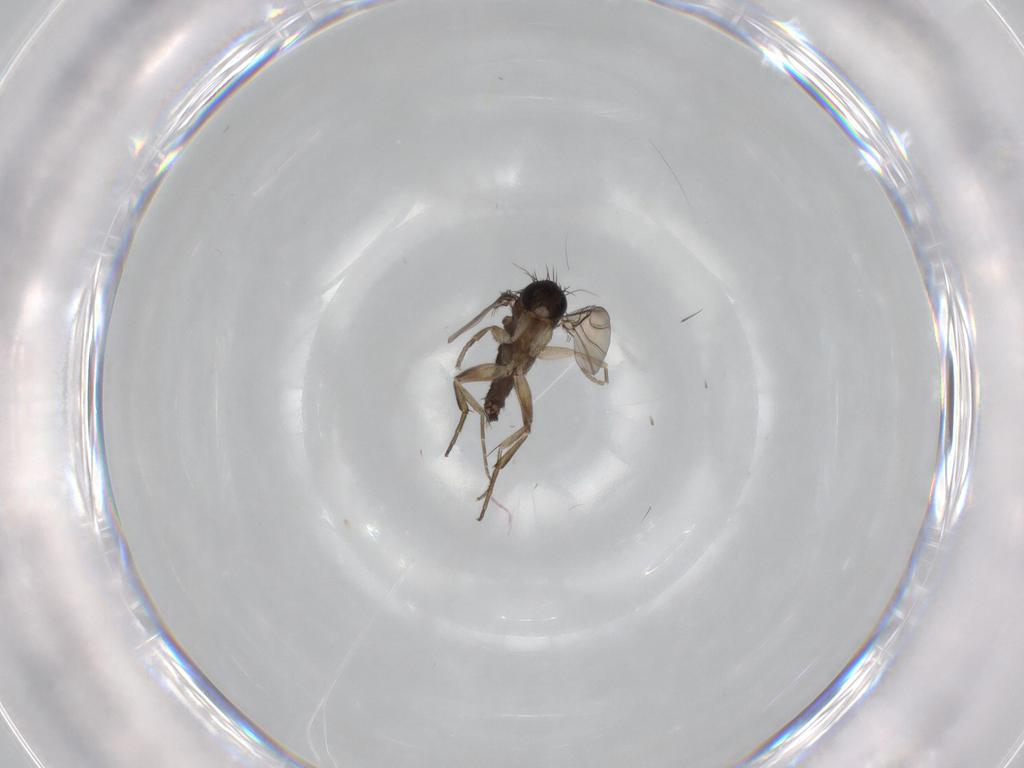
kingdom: Animalia
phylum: Arthropoda
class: Insecta
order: Diptera
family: Phoridae
